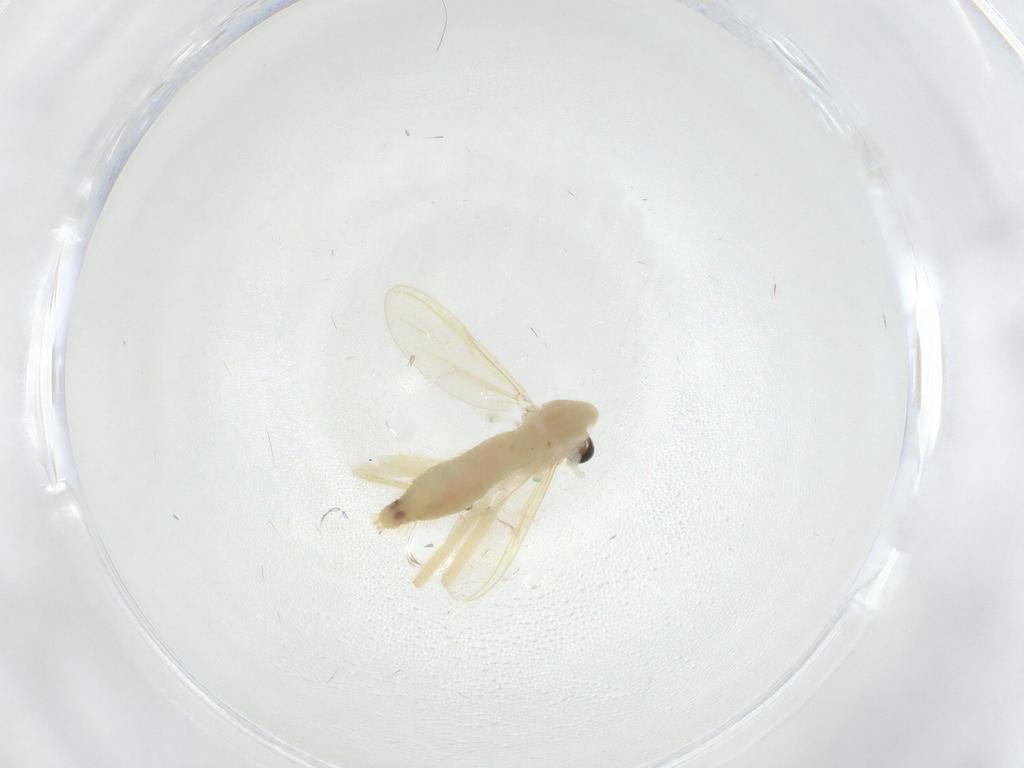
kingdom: Animalia
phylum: Arthropoda
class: Insecta
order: Diptera
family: Chironomidae
